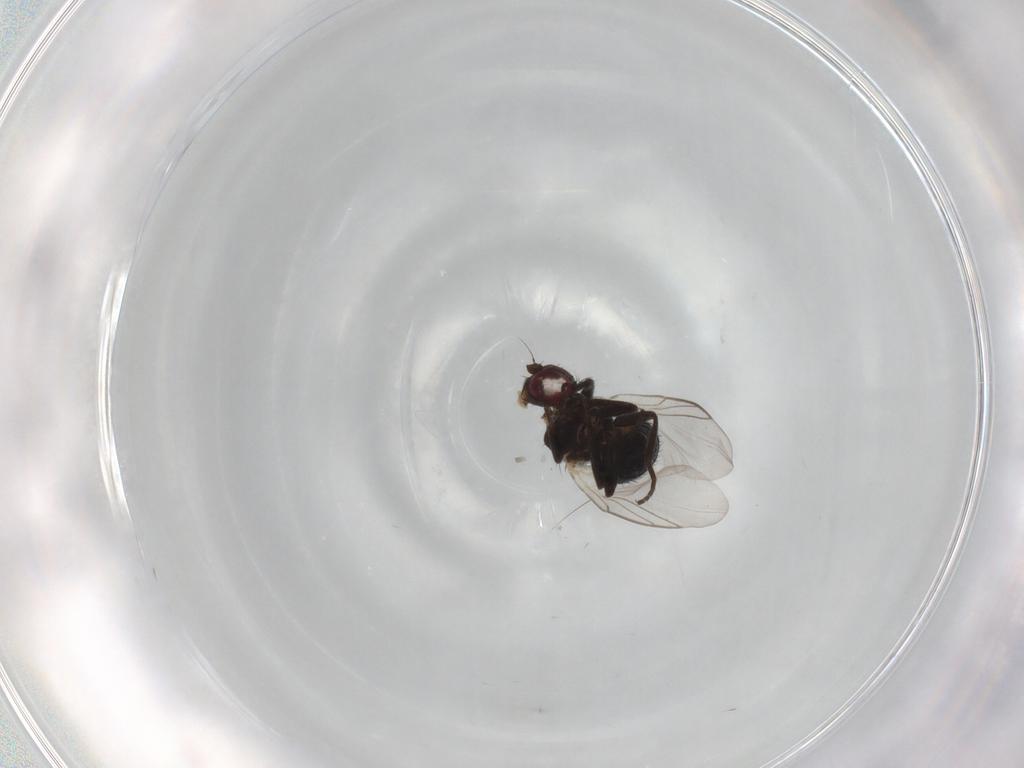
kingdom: Animalia
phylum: Arthropoda
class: Insecta
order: Diptera
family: Agromyzidae
